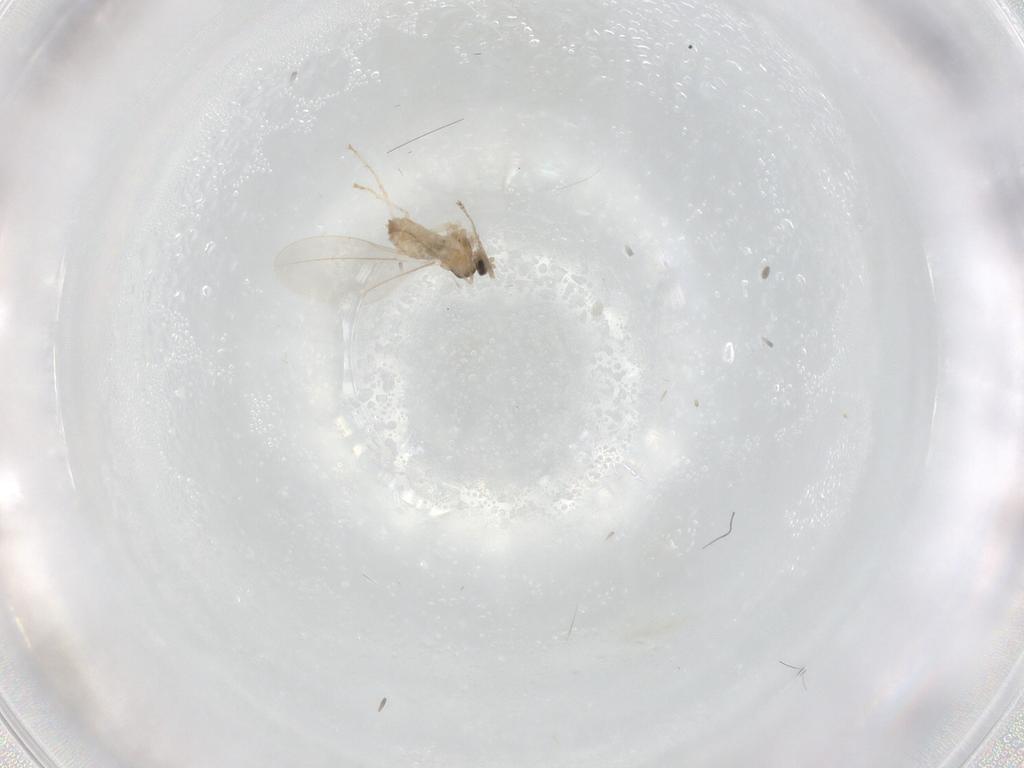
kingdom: Animalia
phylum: Arthropoda
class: Insecta
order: Diptera
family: Cecidomyiidae
